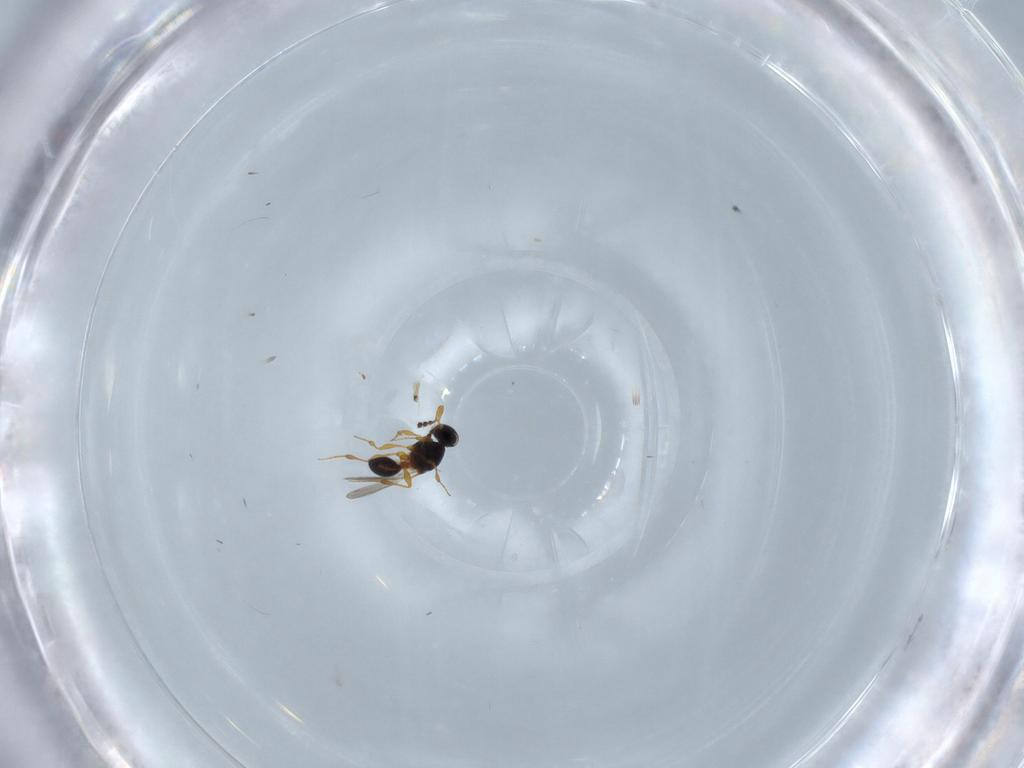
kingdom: Animalia
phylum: Arthropoda
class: Insecta
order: Hymenoptera
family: Platygastridae
